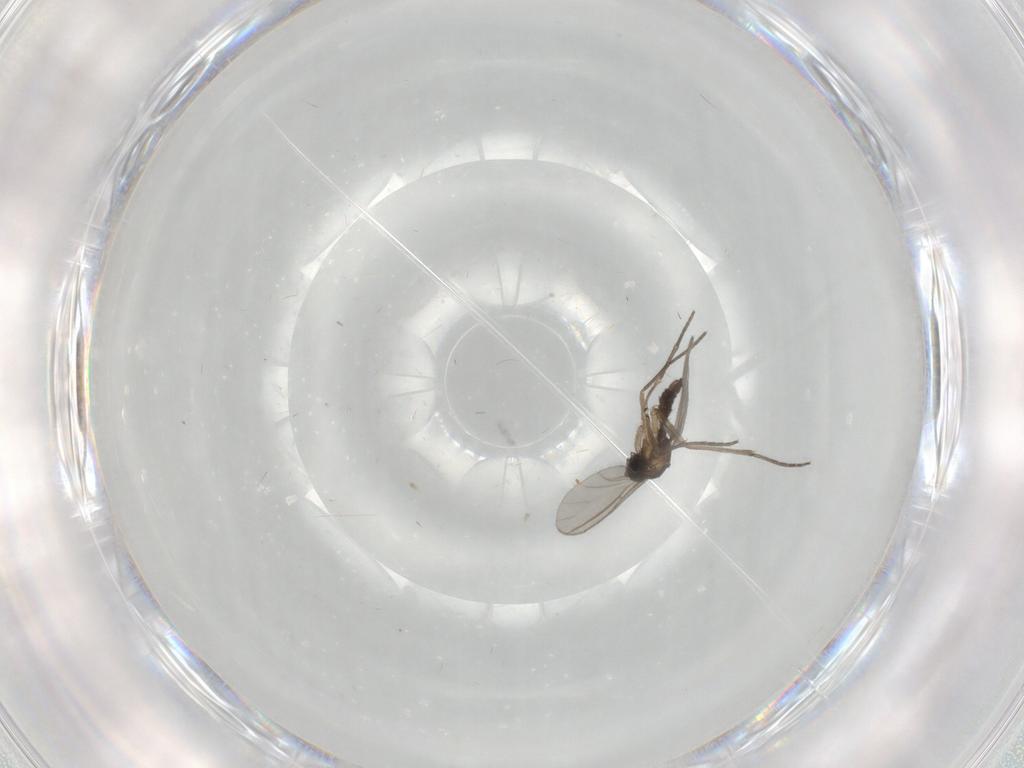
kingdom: Animalia
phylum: Arthropoda
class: Insecta
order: Diptera
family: Sciaridae
